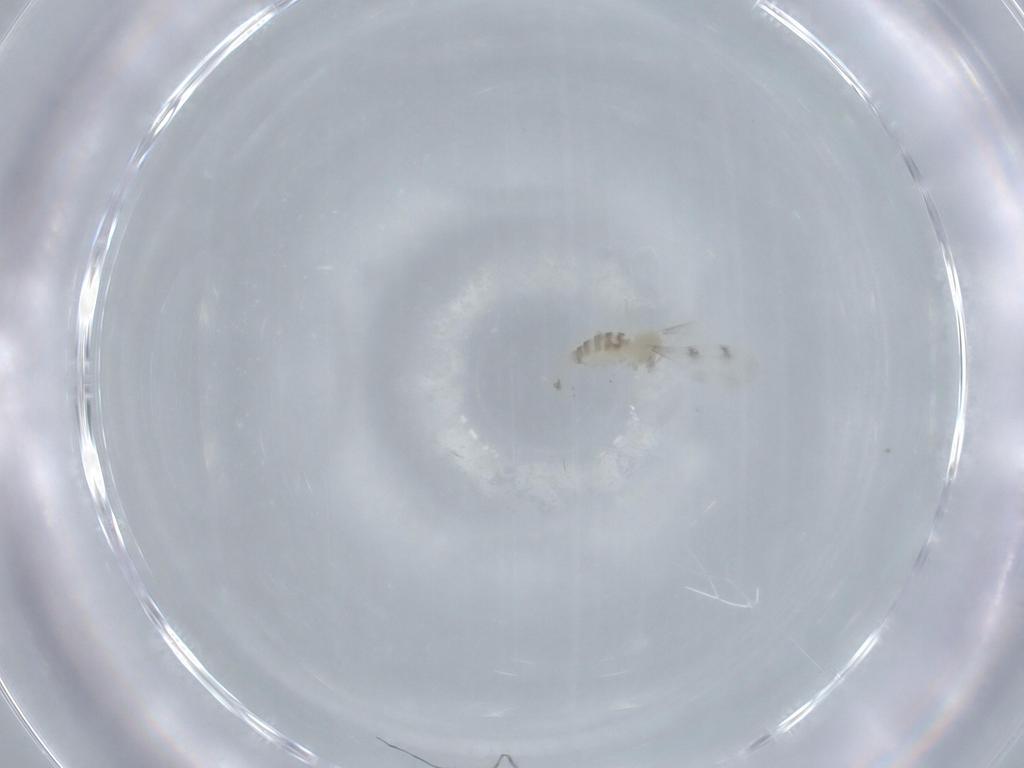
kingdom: Animalia
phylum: Arthropoda
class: Insecta
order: Diptera
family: Cecidomyiidae
